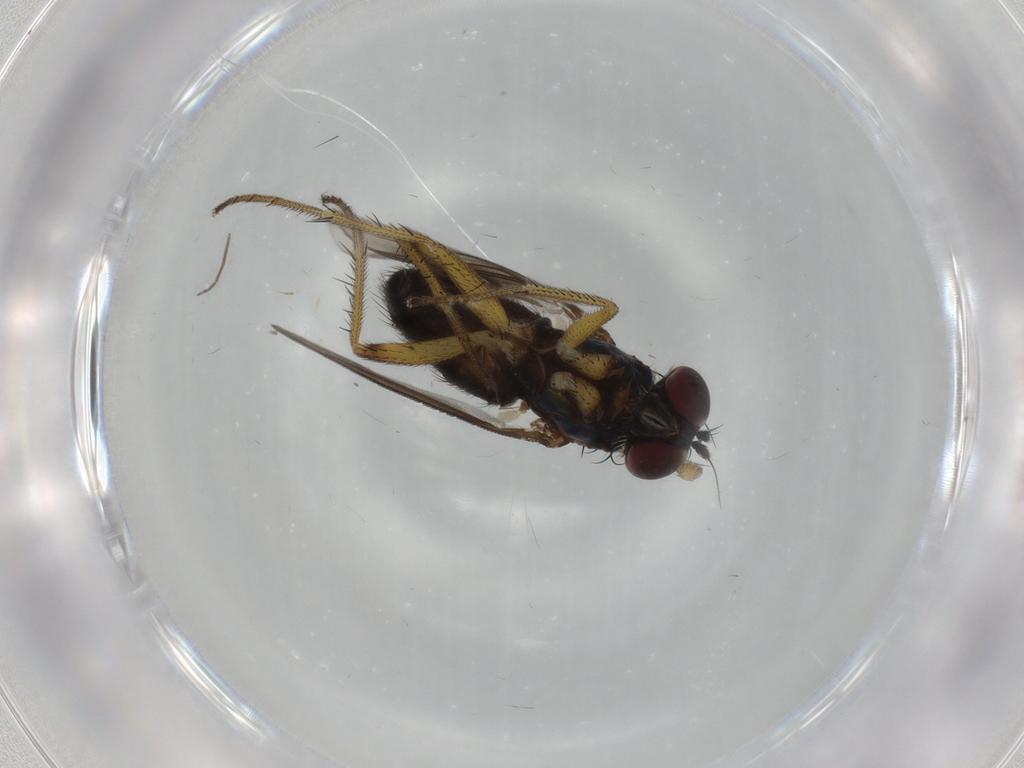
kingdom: Animalia
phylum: Arthropoda
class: Insecta
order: Diptera
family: Dolichopodidae
